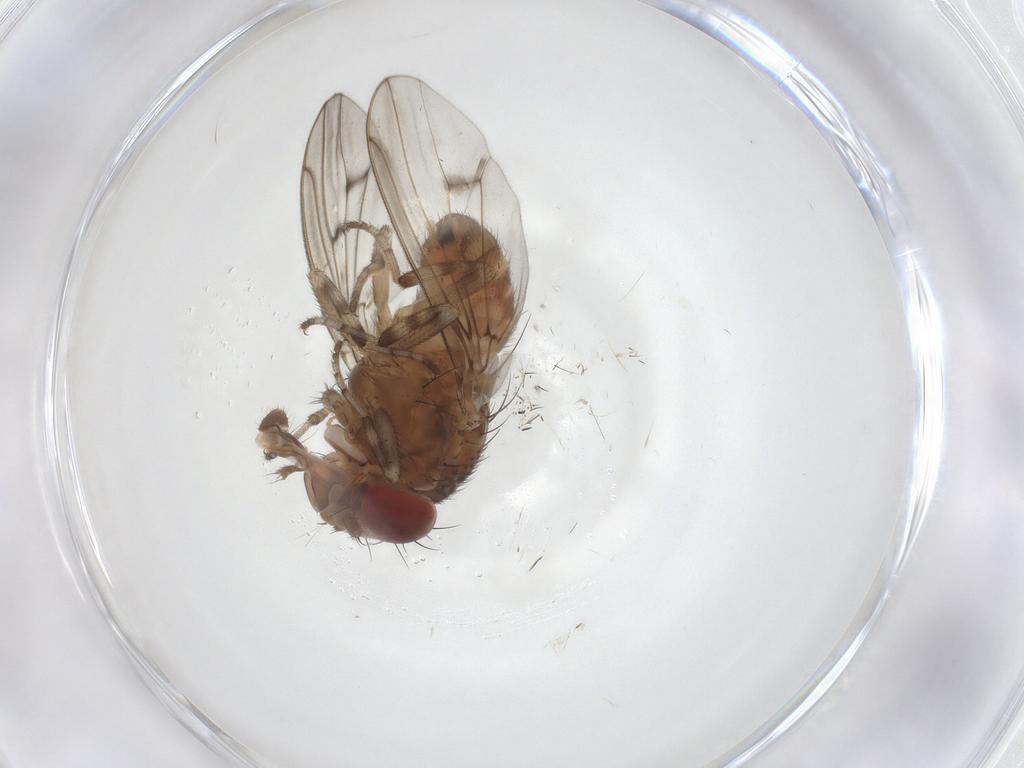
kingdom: Animalia
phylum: Arthropoda
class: Insecta
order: Diptera
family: Drosophilidae
